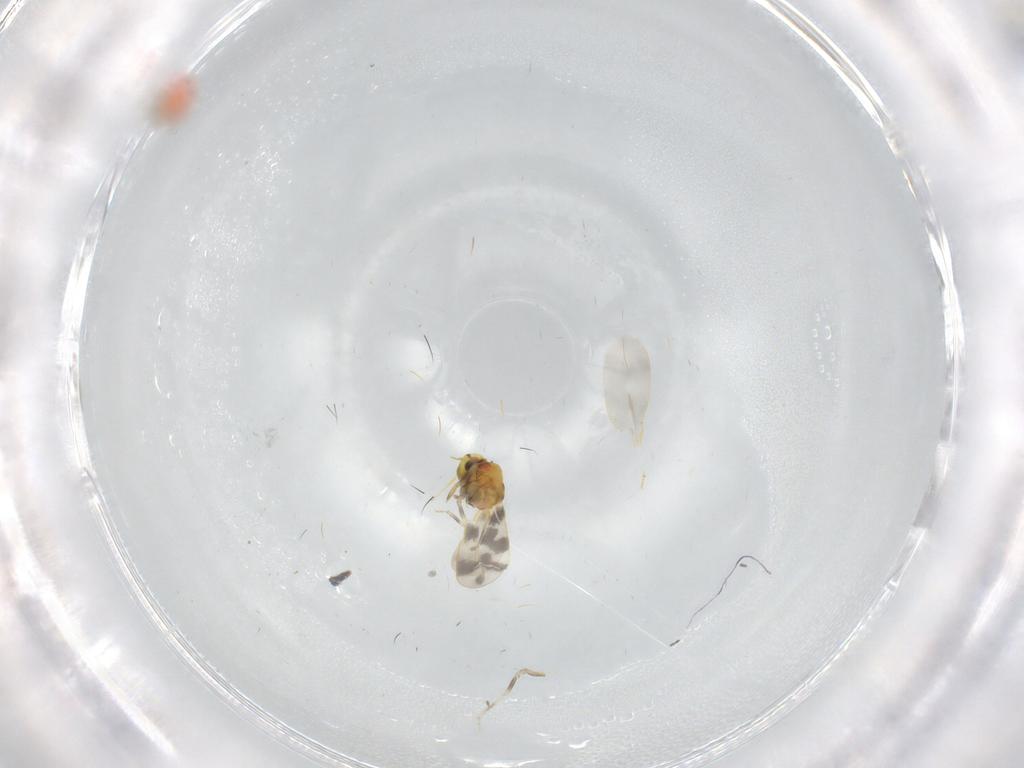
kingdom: Animalia
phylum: Arthropoda
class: Insecta
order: Hemiptera
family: Aleyrodidae
